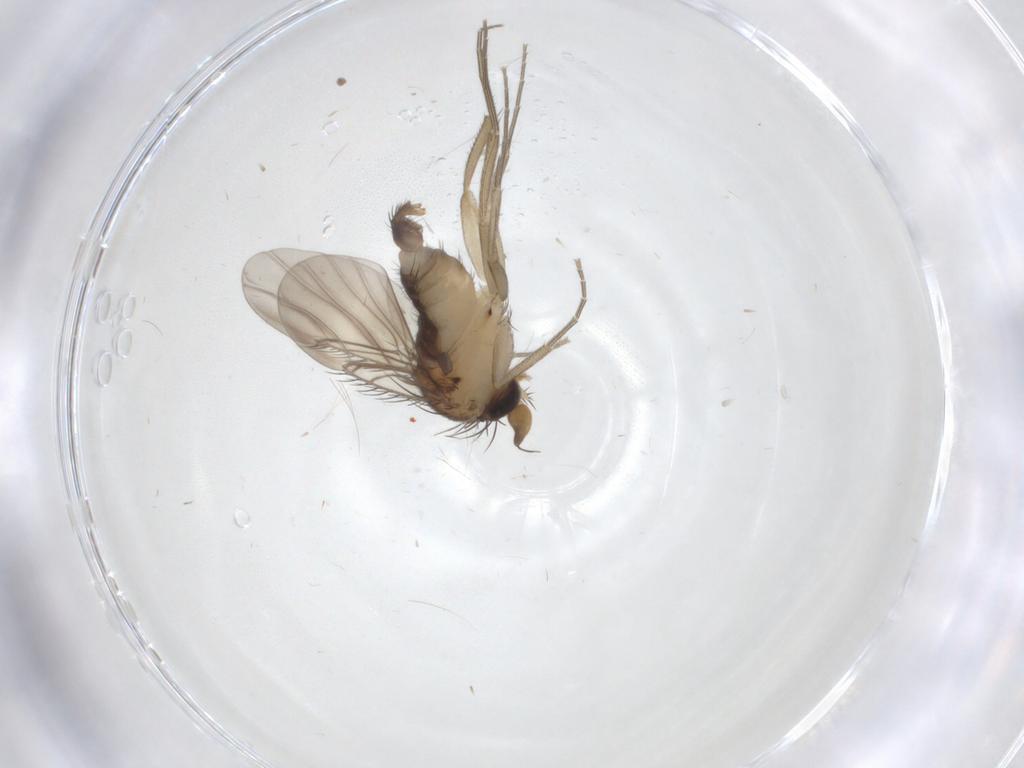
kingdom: Animalia
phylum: Arthropoda
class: Insecta
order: Diptera
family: Phoridae
